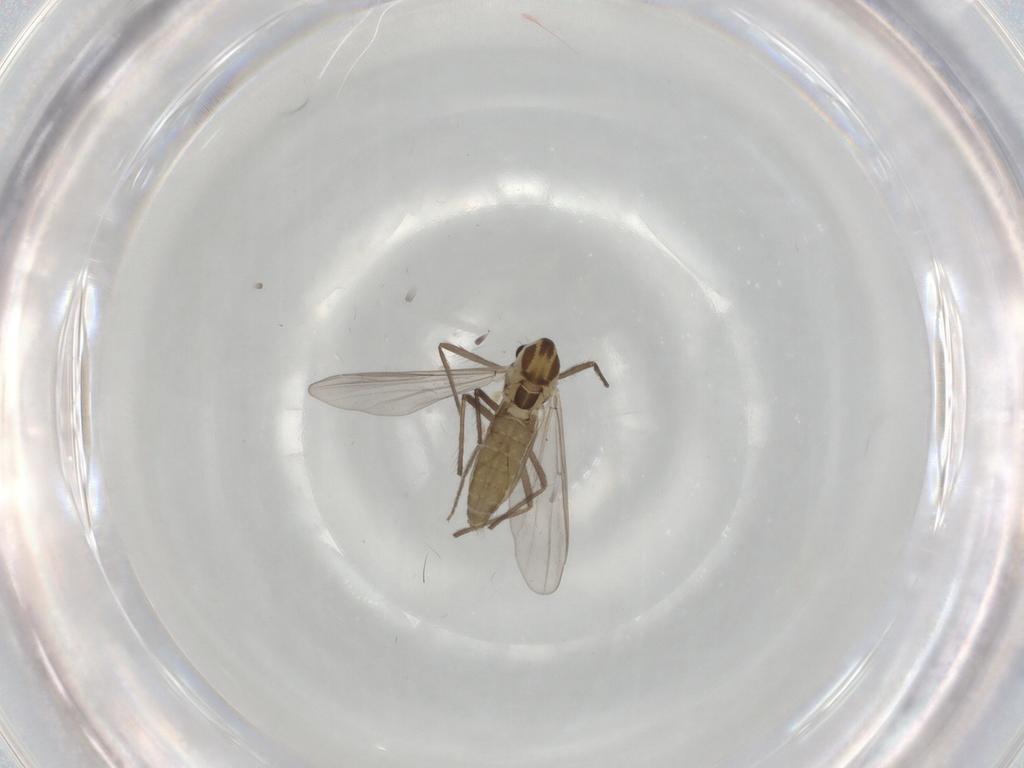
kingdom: Animalia
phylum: Arthropoda
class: Insecta
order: Diptera
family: Chironomidae
